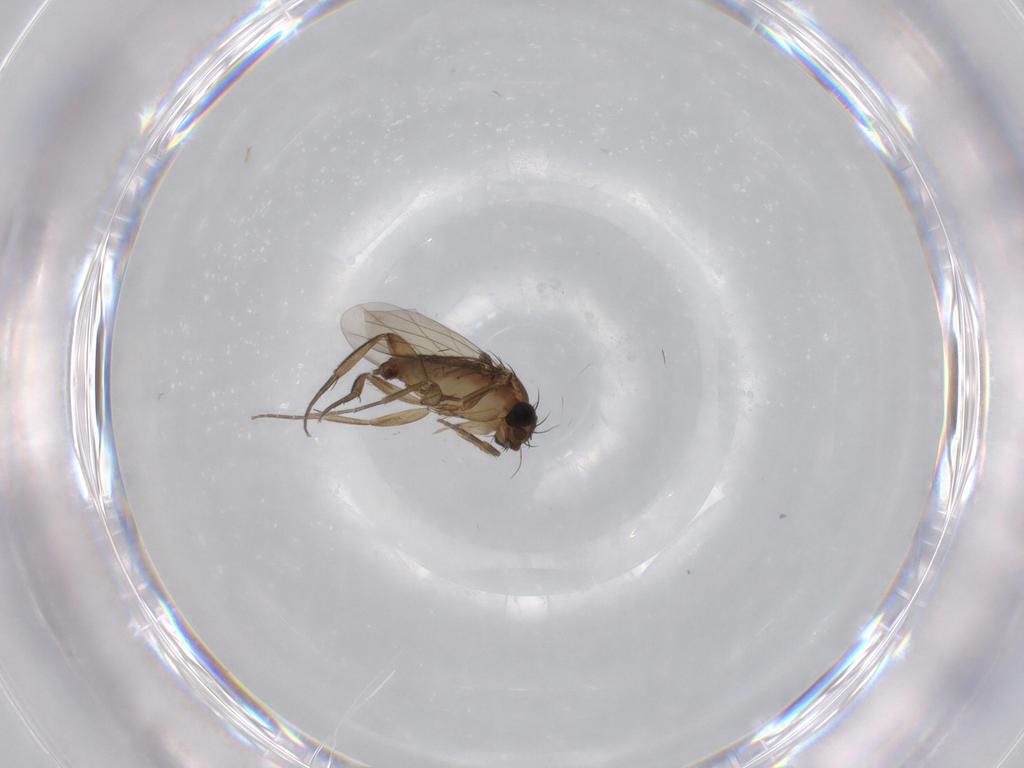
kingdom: Animalia
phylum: Arthropoda
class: Insecta
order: Diptera
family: Phoridae
